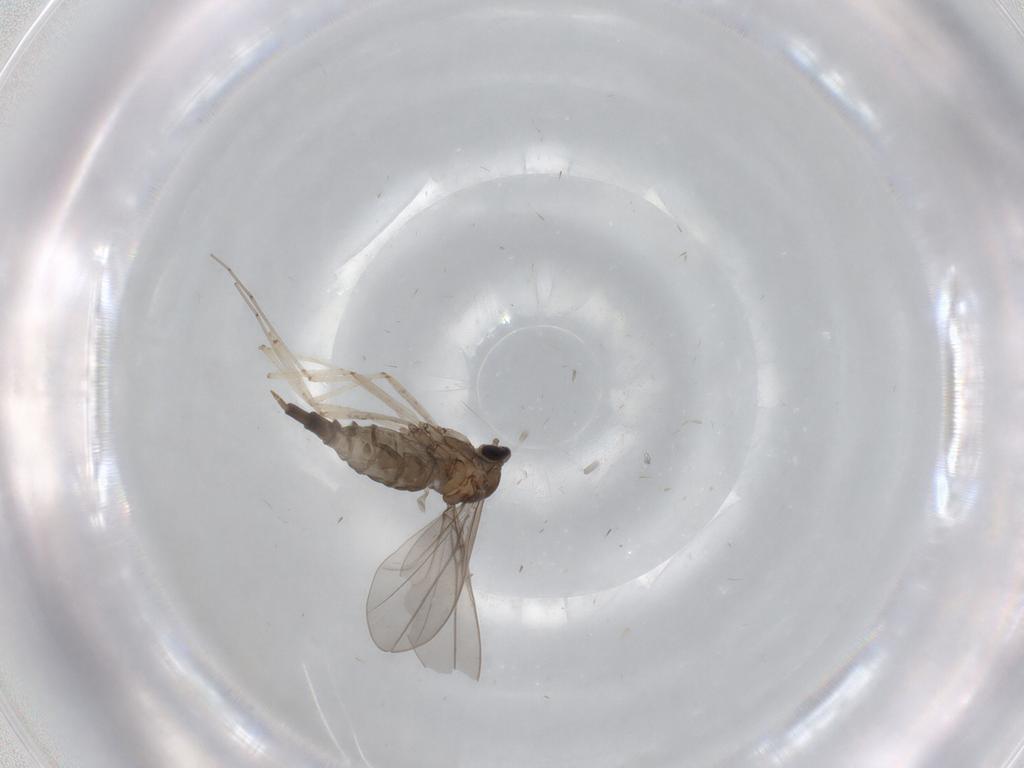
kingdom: Animalia
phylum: Arthropoda
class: Insecta
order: Diptera
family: Cecidomyiidae
